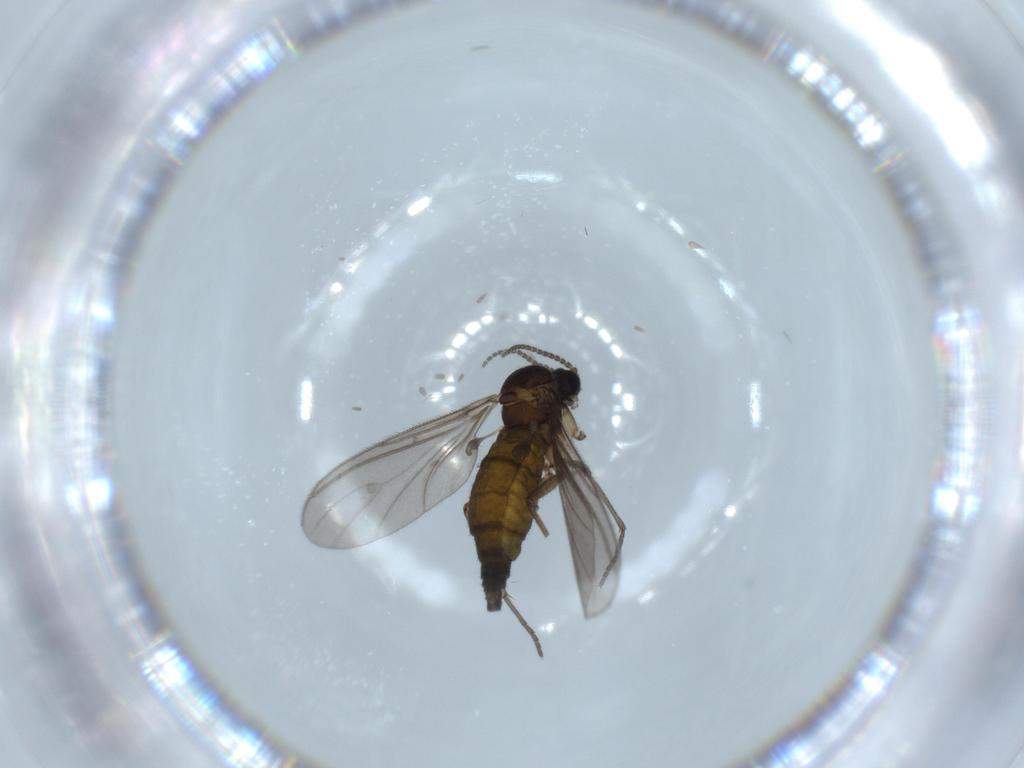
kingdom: Animalia
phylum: Arthropoda
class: Insecta
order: Diptera
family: Sciaridae
